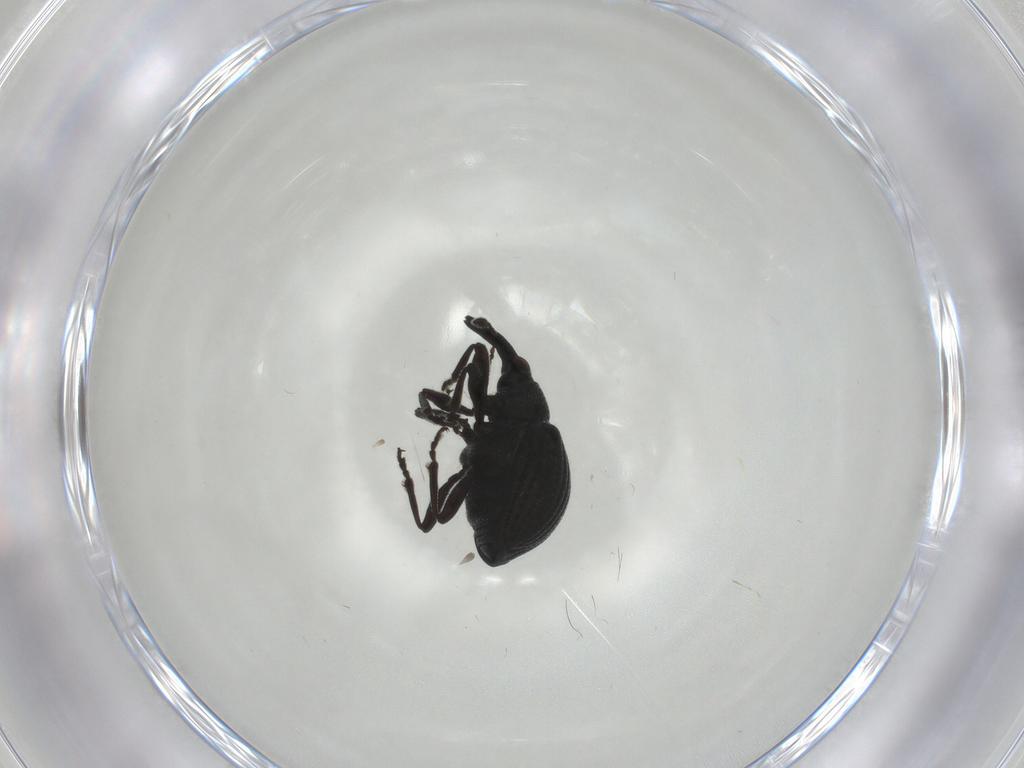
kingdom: Animalia
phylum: Arthropoda
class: Insecta
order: Coleoptera
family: Brentidae
